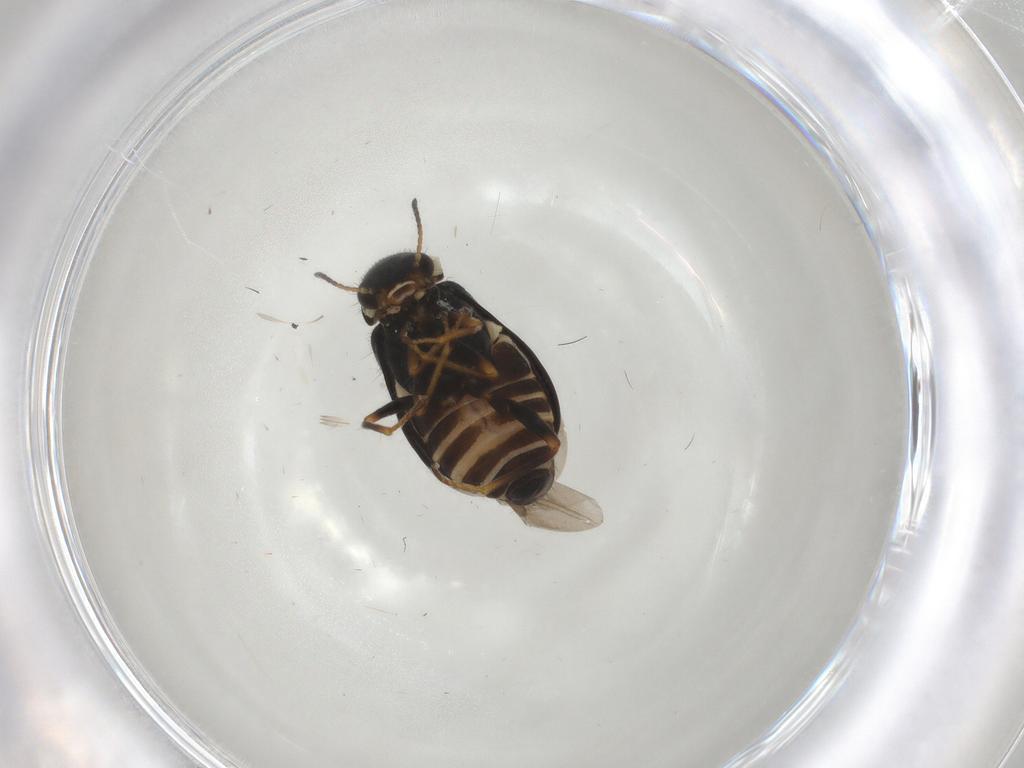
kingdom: Animalia
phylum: Arthropoda
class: Insecta
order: Coleoptera
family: Melyridae
